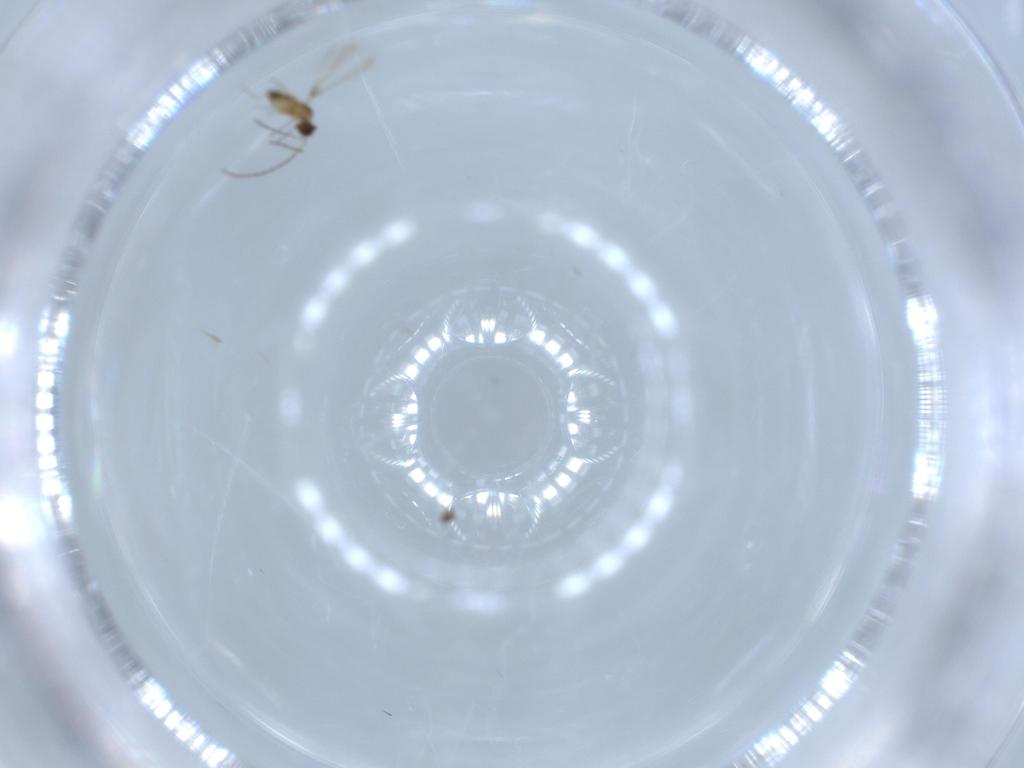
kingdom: Animalia
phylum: Arthropoda
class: Insecta
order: Hymenoptera
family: Mymaridae
